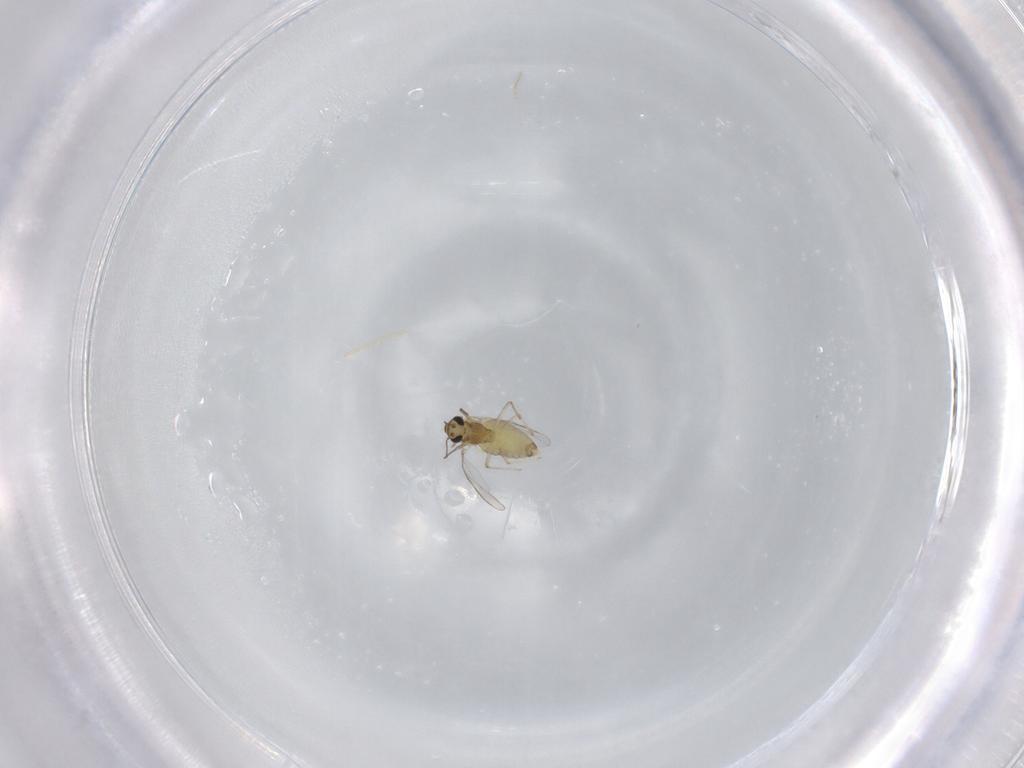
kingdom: Animalia
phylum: Arthropoda
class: Insecta
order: Diptera
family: Chironomidae
